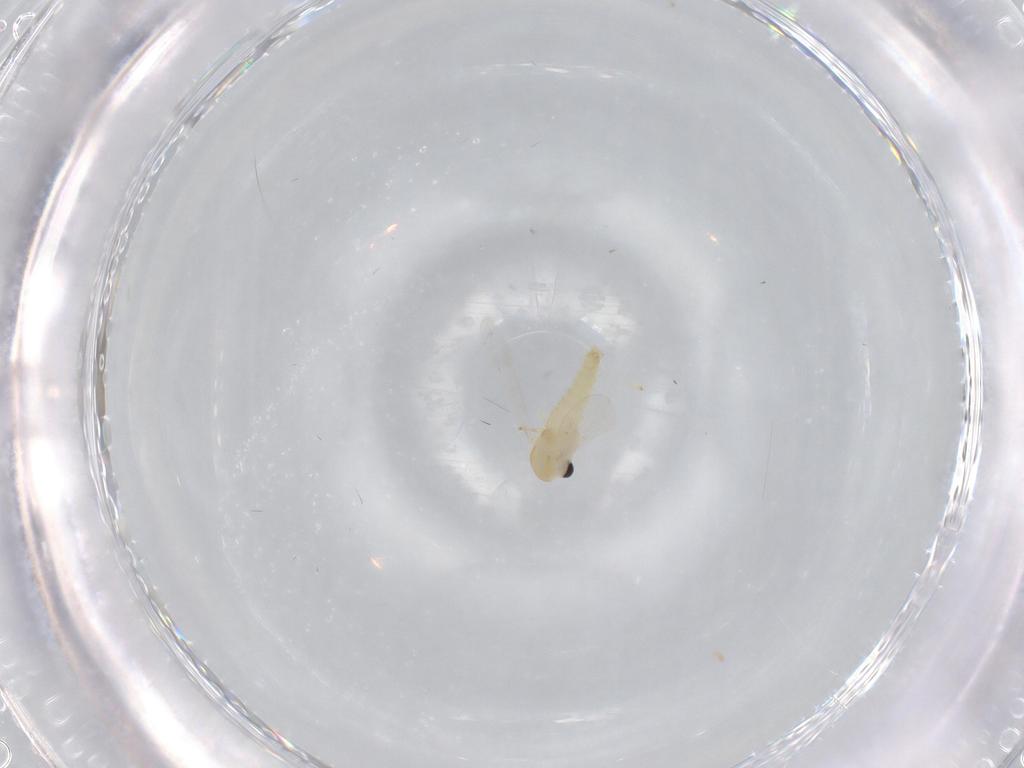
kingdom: Animalia
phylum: Arthropoda
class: Insecta
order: Diptera
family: Chironomidae
